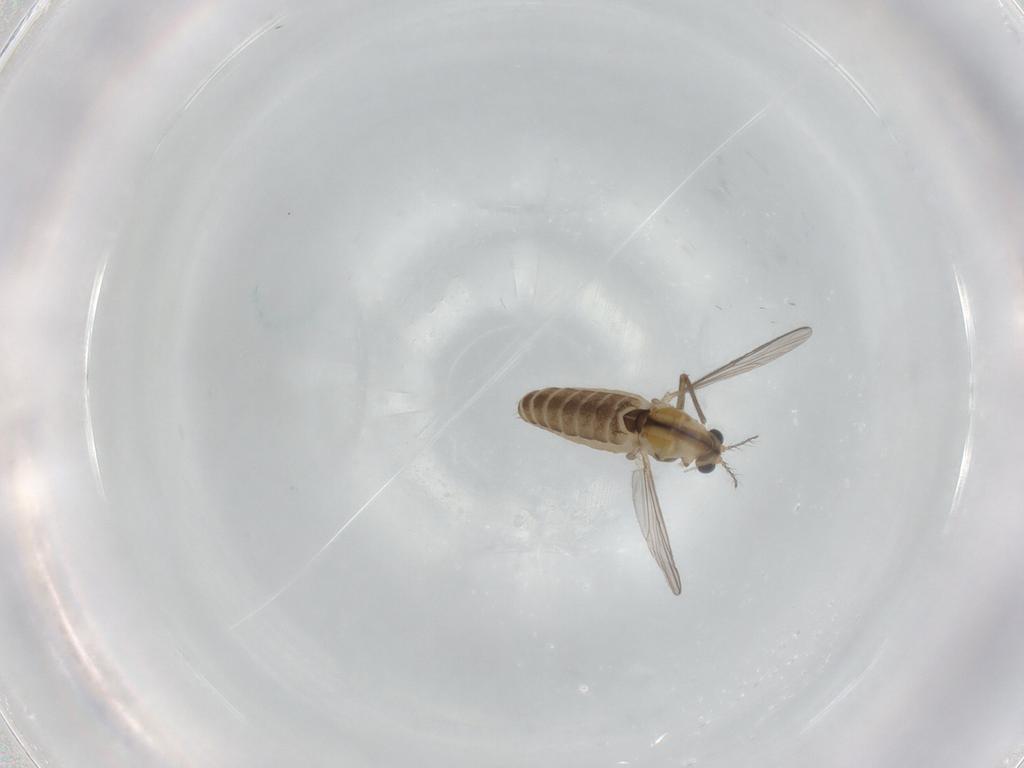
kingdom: Animalia
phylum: Arthropoda
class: Insecta
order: Diptera
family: Chironomidae
